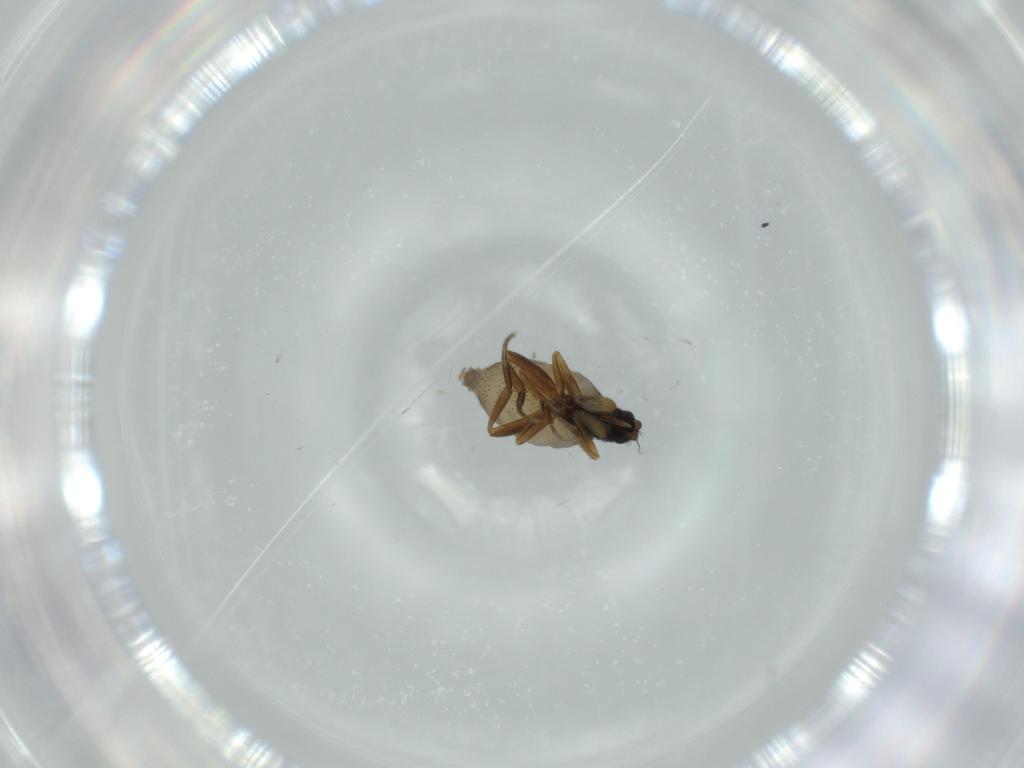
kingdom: Animalia
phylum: Arthropoda
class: Insecta
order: Diptera
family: Phoridae
